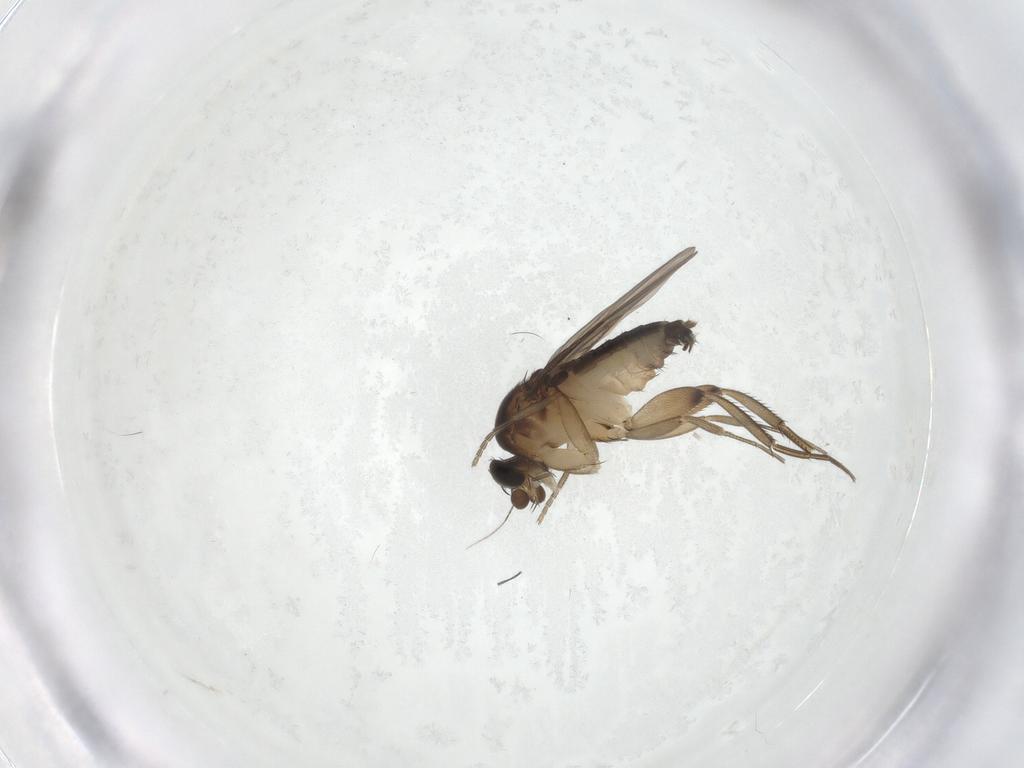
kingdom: Animalia
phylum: Arthropoda
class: Insecta
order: Diptera
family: Phoridae
